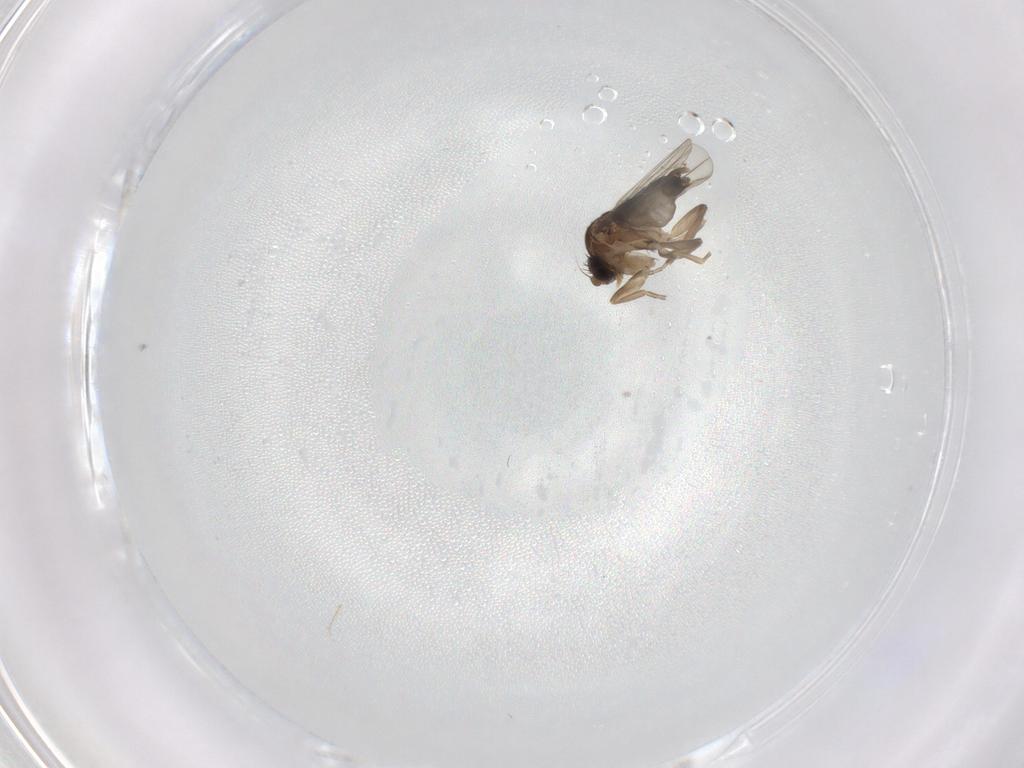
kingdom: Animalia
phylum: Arthropoda
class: Insecta
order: Diptera
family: Phoridae
